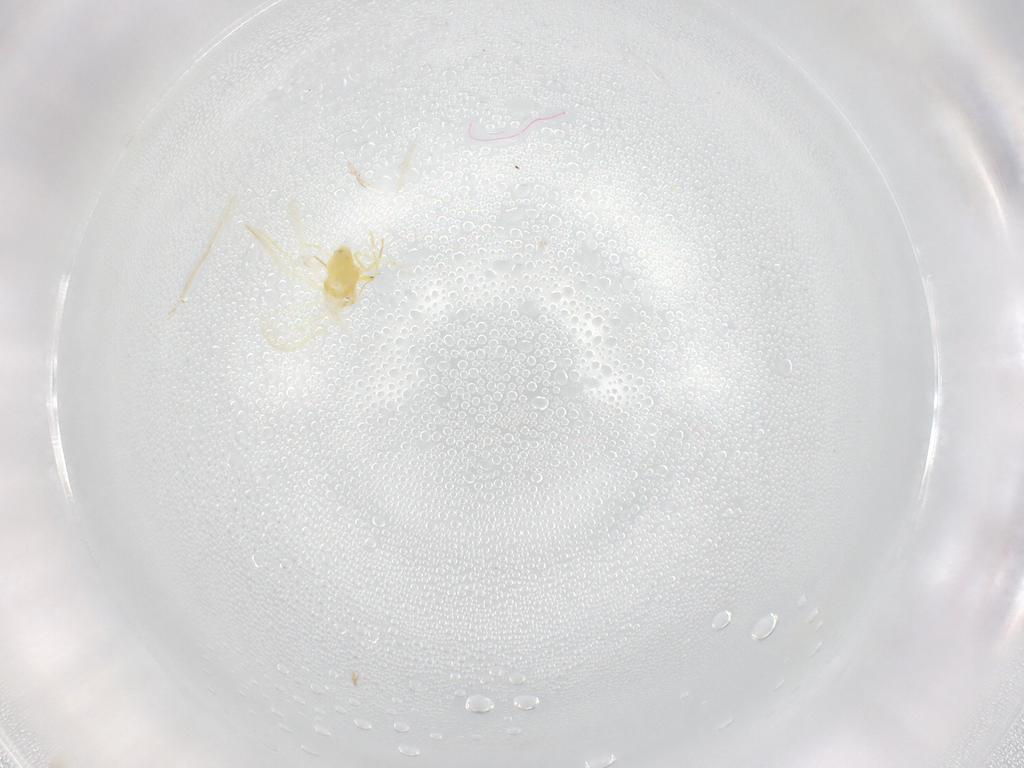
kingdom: Animalia
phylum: Arthropoda
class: Insecta
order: Hemiptera
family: Aleyrodidae
